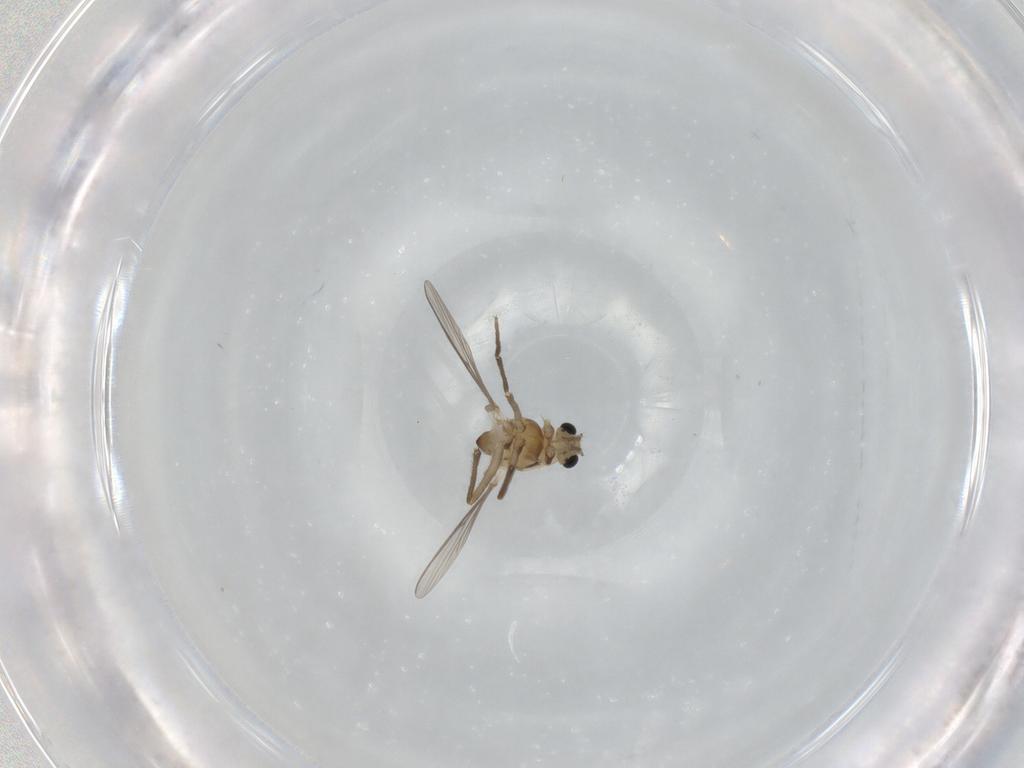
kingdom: Animalia
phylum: Arthropoda
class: Insecta
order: Diptera
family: Chironomidae
